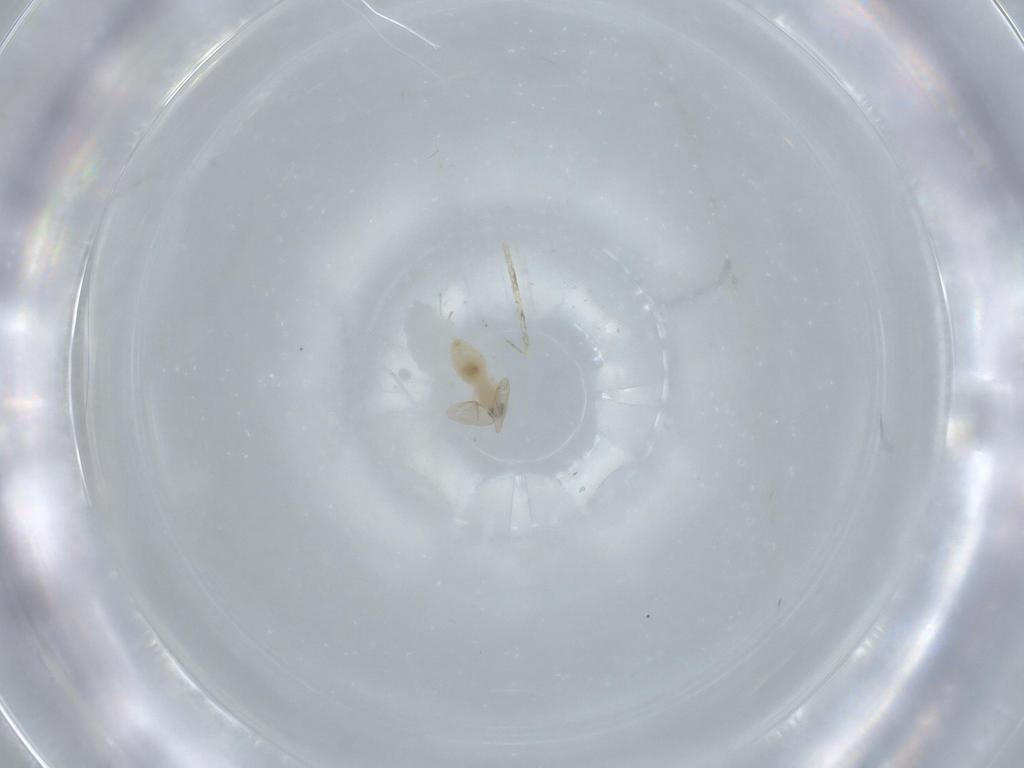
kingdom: Animalia
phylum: Arthropoda
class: Insecta
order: Diptera
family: Cecidomyiidae
